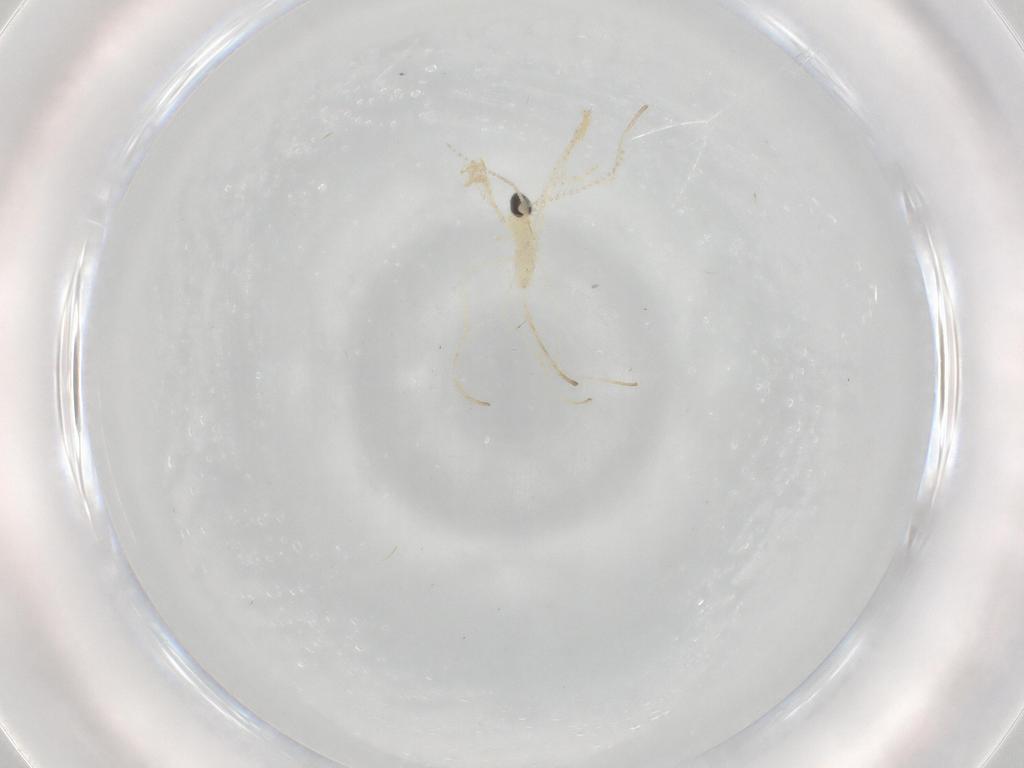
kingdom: Animalia
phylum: Arthropoda
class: Insecta
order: Diptera
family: Cecidomyiidae
